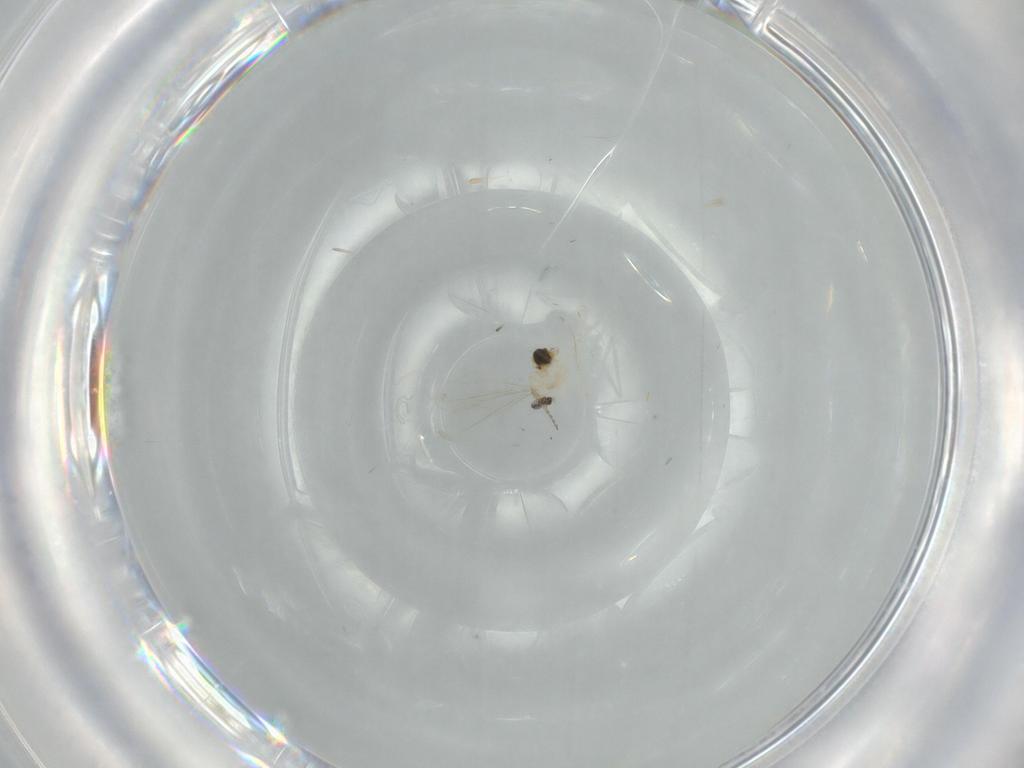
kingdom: Animalia
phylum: Arthropoda
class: Insecta
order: Diptera
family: Cecidomyiidae
